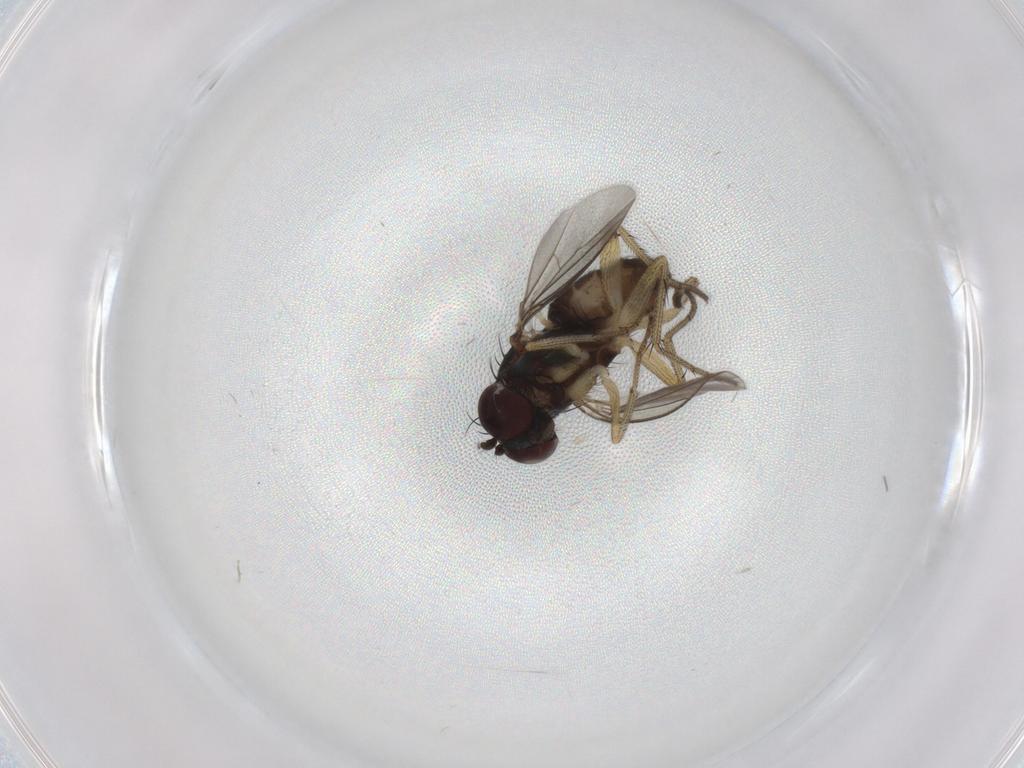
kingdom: Animalia
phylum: Arthropoda
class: Insecta
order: Diptera
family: Dolichopodidae
